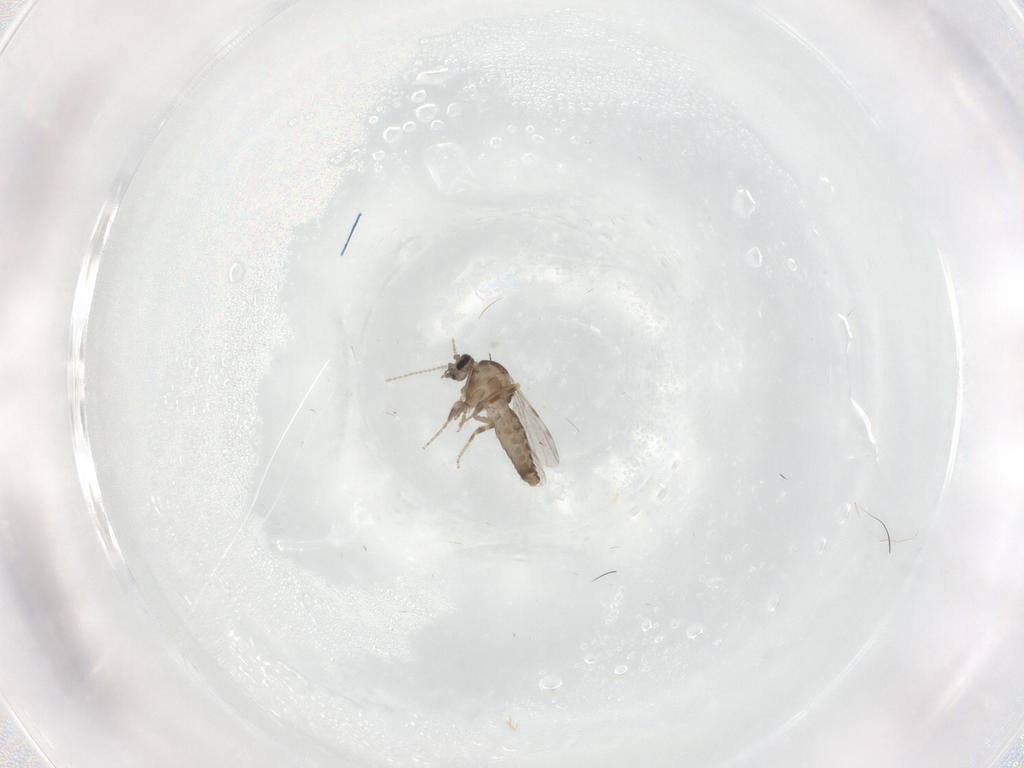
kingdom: Animalia
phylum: Arthropoda
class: Insecta
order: Diptera
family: Ceratopogonidae
